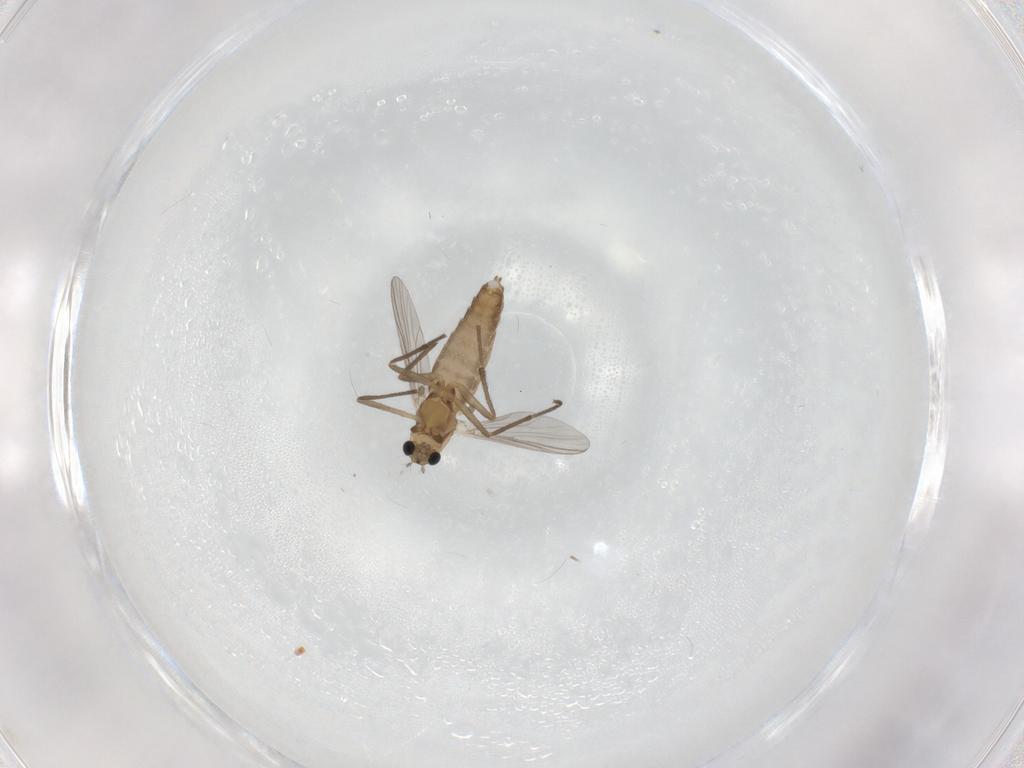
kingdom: Animalia
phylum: Arthropoda
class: Insecta
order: Diptera
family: Chironomidae
